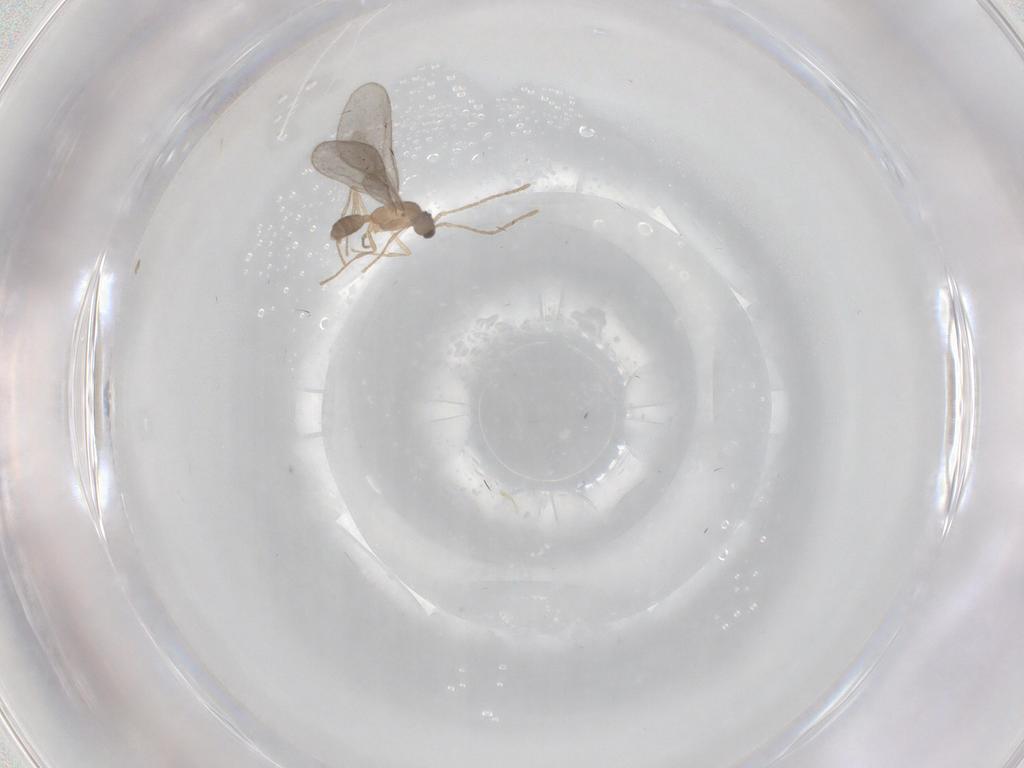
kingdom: Animalia
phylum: Arthropoda
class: Insecta
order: Hymenoptera
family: Formicidae
